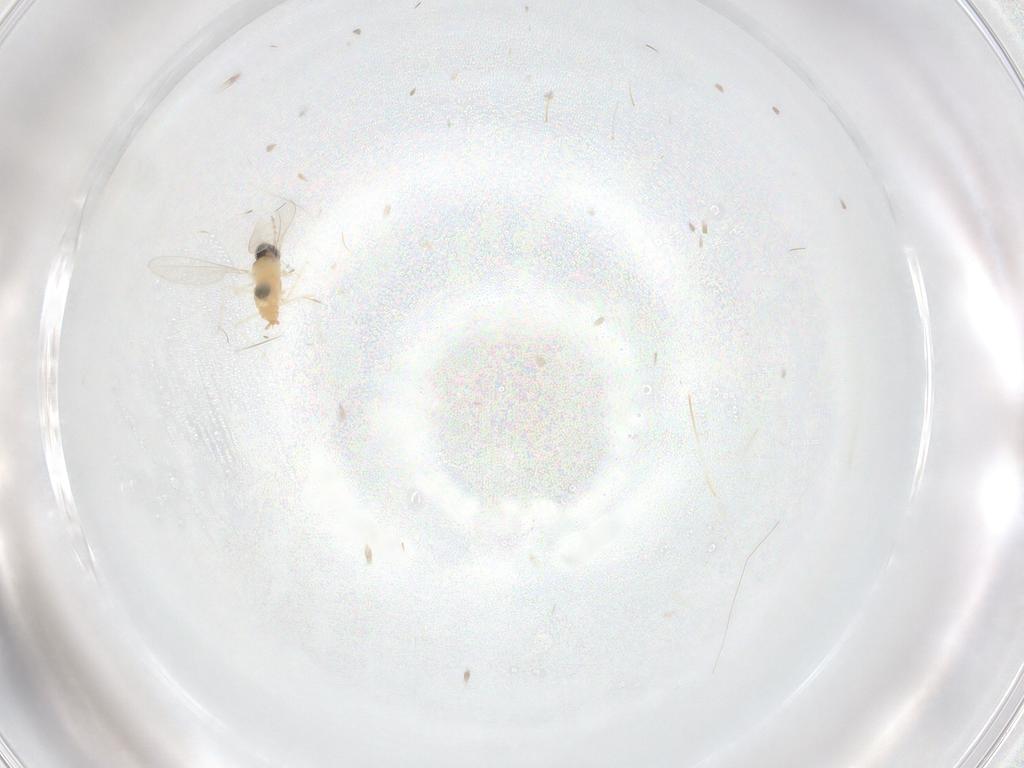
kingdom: Animalia
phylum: Arthropoda
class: Insecta
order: Diptera
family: Cecidomyiidae
